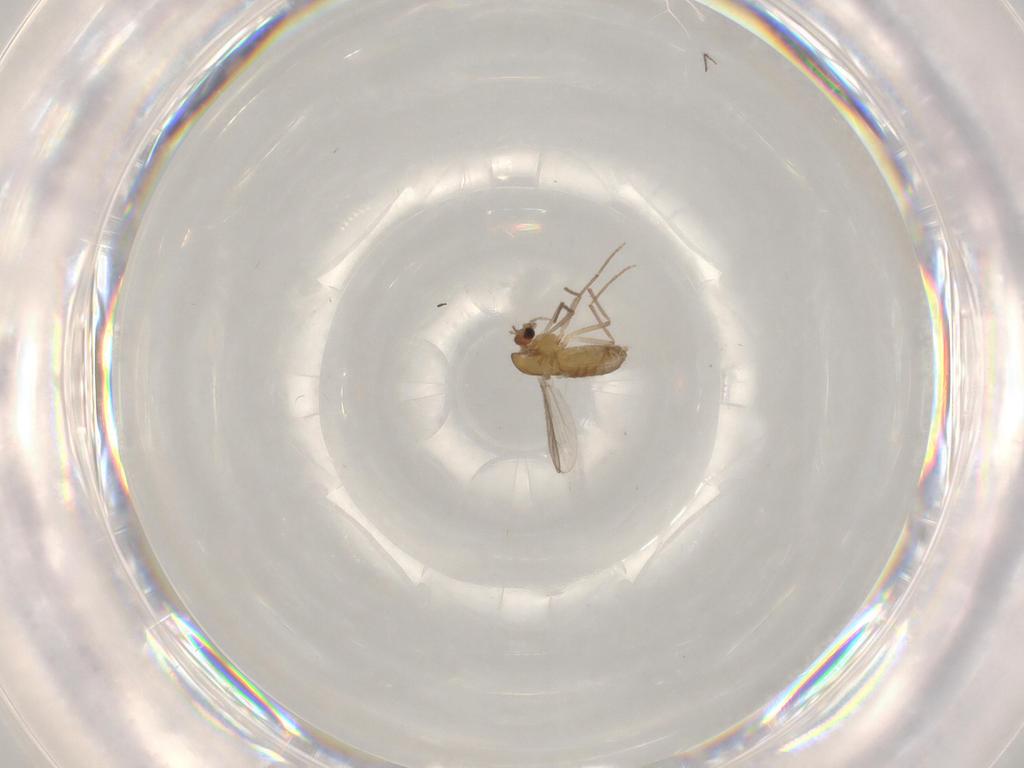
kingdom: Animalia
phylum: Arthropoda
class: Insecta
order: Diptera
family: Chironomidae
